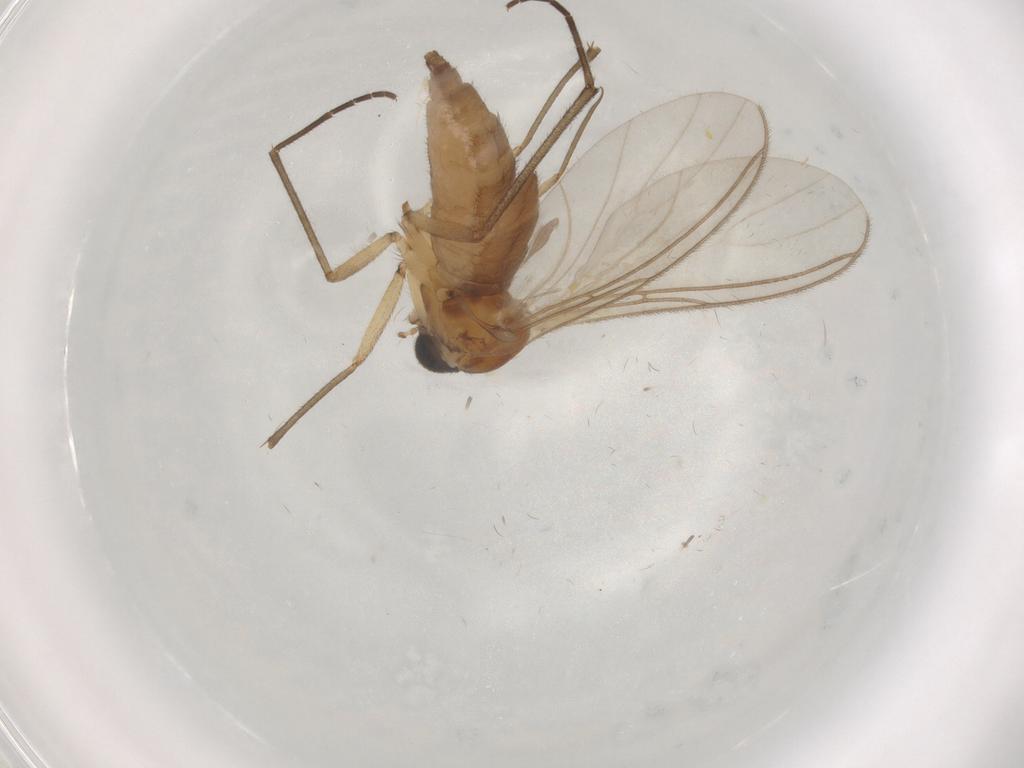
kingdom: Animalia
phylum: Arthropoda
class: Insecta
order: Diptera
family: Sciaridae
